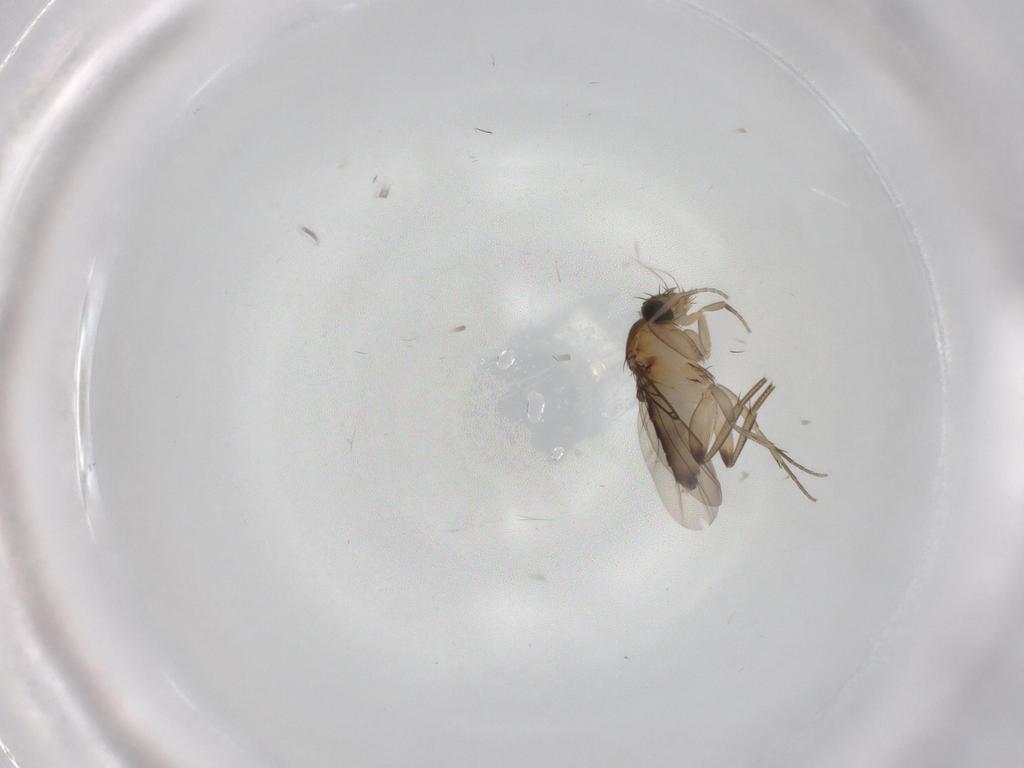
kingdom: Animalia
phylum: Arthropoda
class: Insecta
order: Diptera
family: Phoridae
